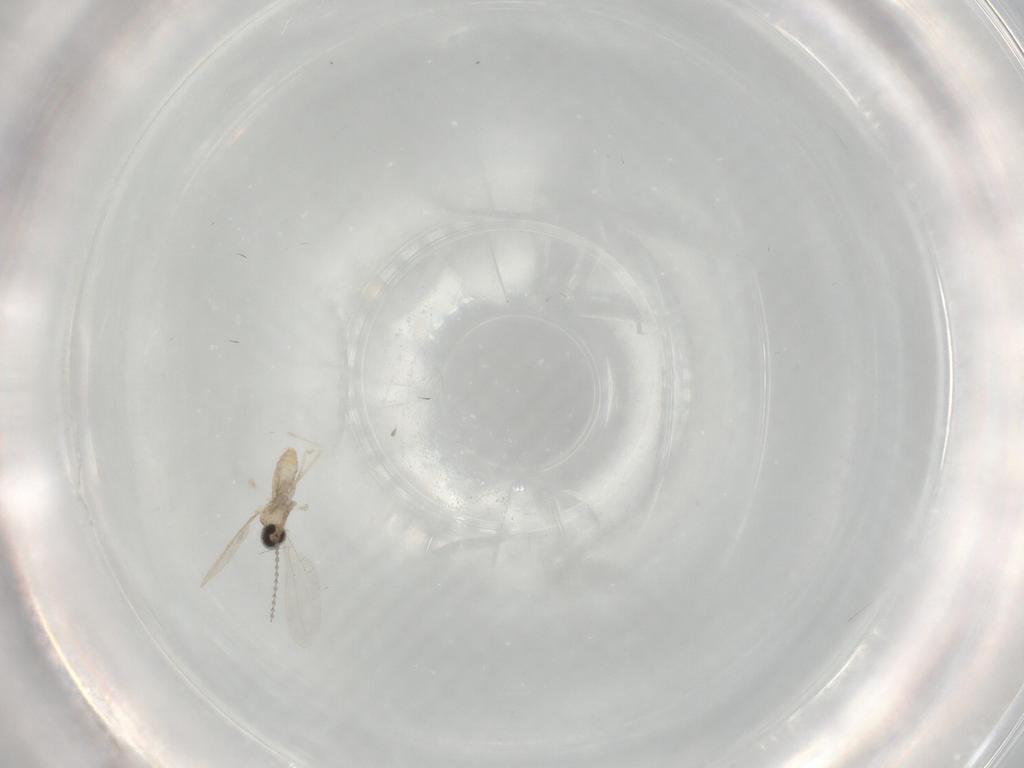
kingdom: Animalia
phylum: Arthropoda
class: Insecta
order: Diptera
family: Cecidomyiidae
